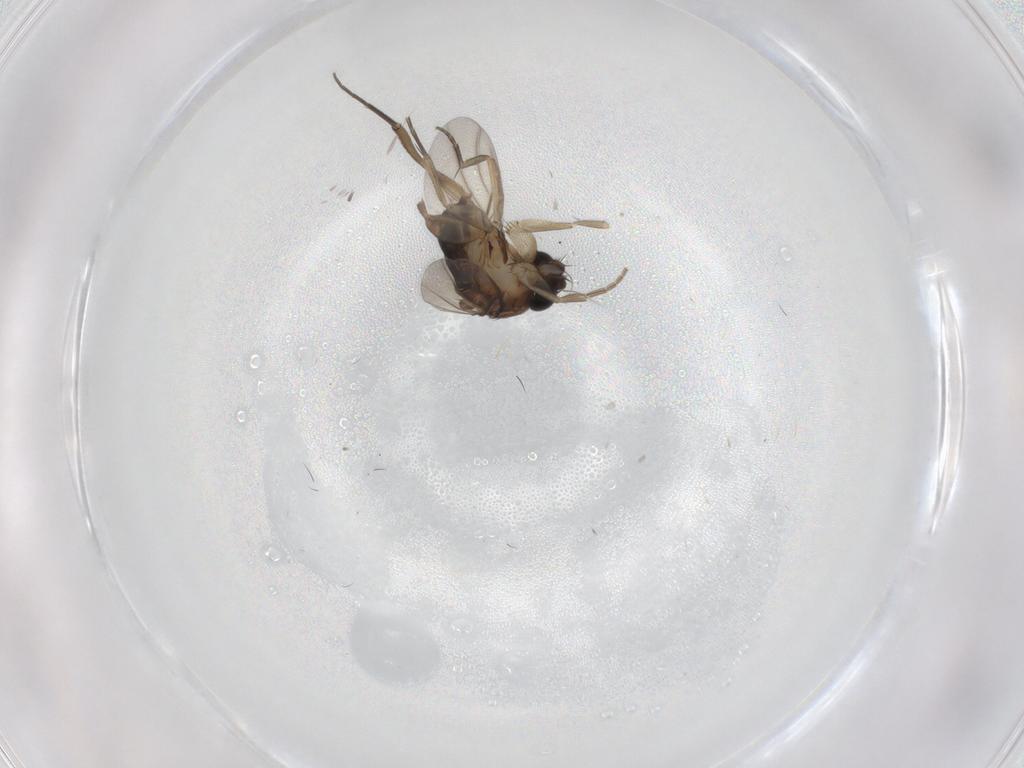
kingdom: Animalia
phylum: Arthropoda
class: Insecta
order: Diptera
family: Phoridae
